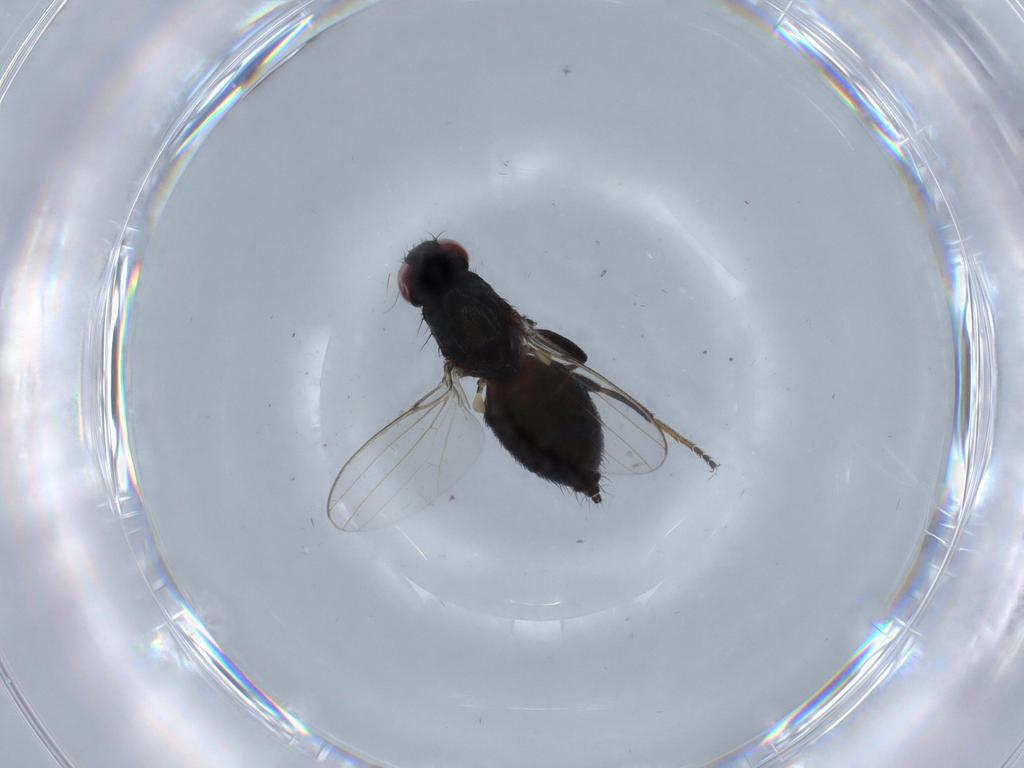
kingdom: Animalia
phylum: Arthropoda
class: Insecta
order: Diptera
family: Milichiidae
